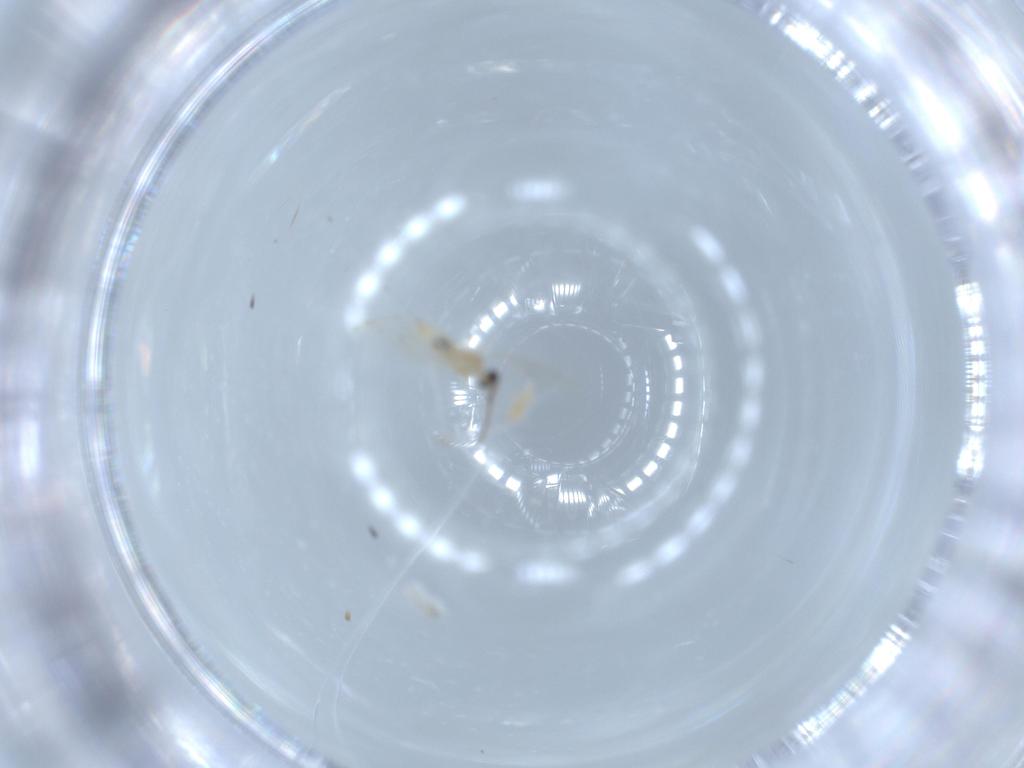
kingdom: Animalia
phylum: Arthropoda
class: Insecta
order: Diptera
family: Cecidomyiidae
